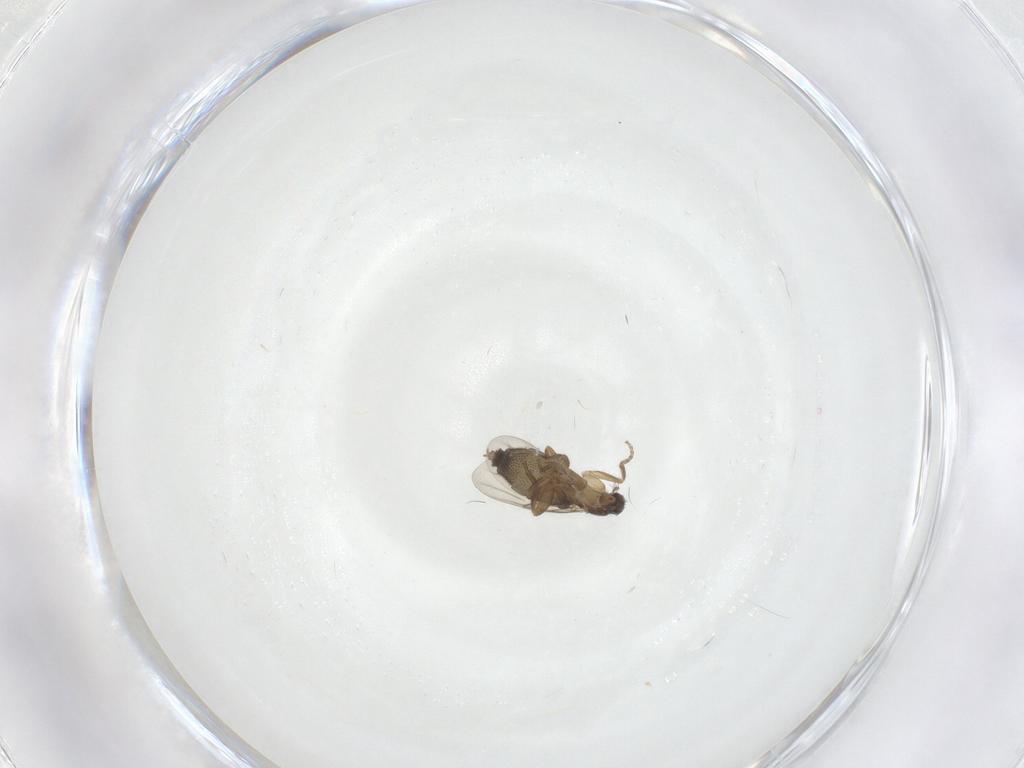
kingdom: Animalia
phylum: Arthropoda
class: Insecta
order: Diptera
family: Phoridae
